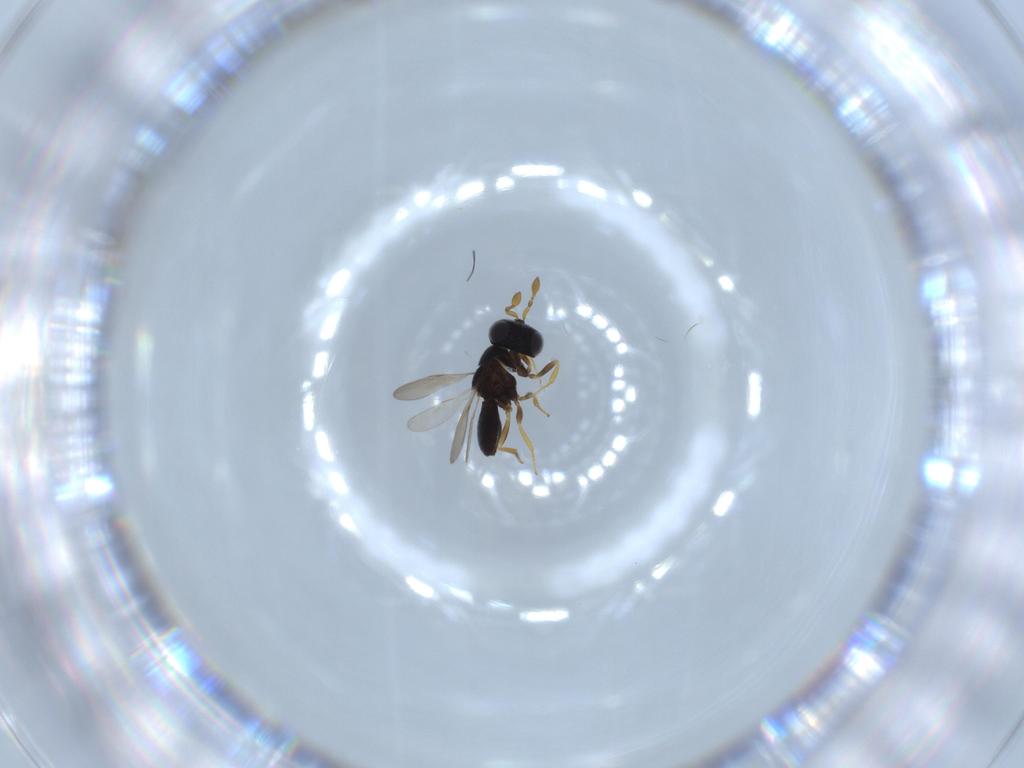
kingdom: Animalia
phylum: Arthropoda
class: Insecta
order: Hymenoptera
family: Scelionidae
